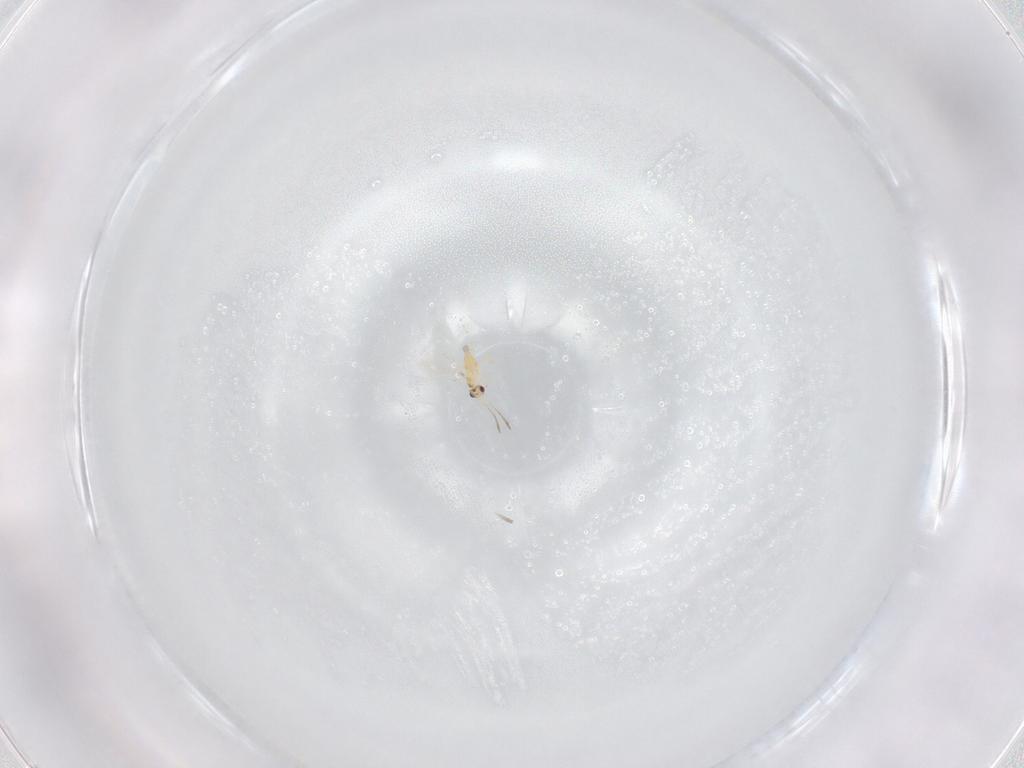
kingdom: Animalia
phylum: Arthropoda
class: Insecta
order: Hymenoptera
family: Mymaridae
